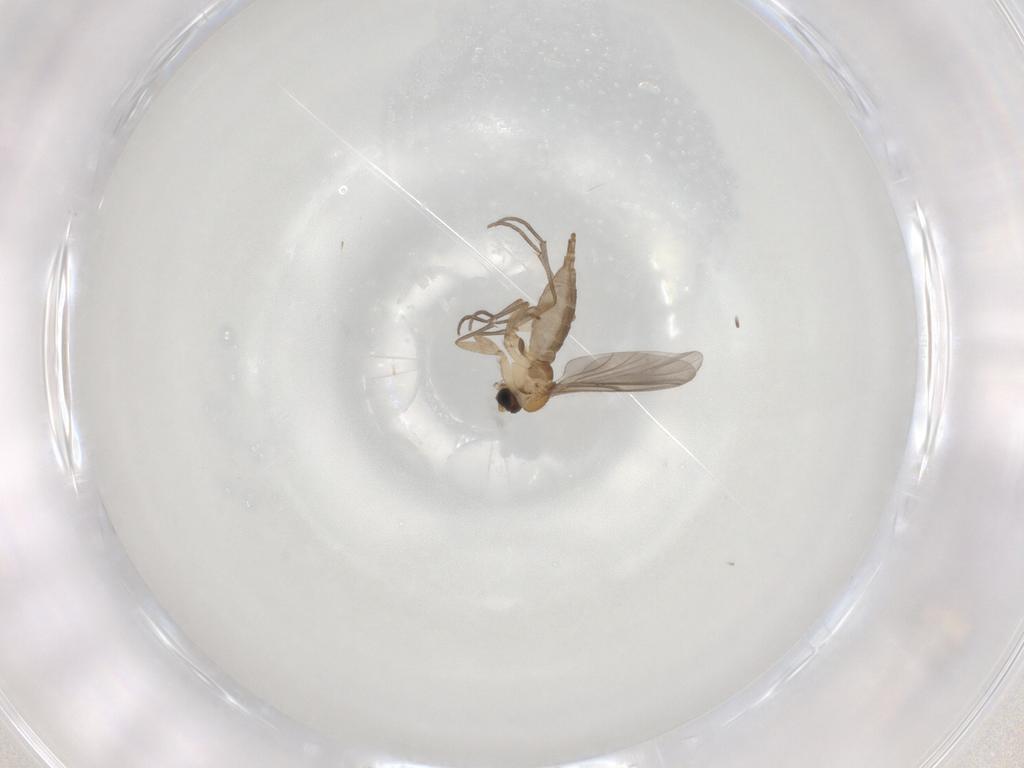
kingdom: Animalia
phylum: Arthropoda
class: Insecta
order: Diptera
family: Sciaridae
